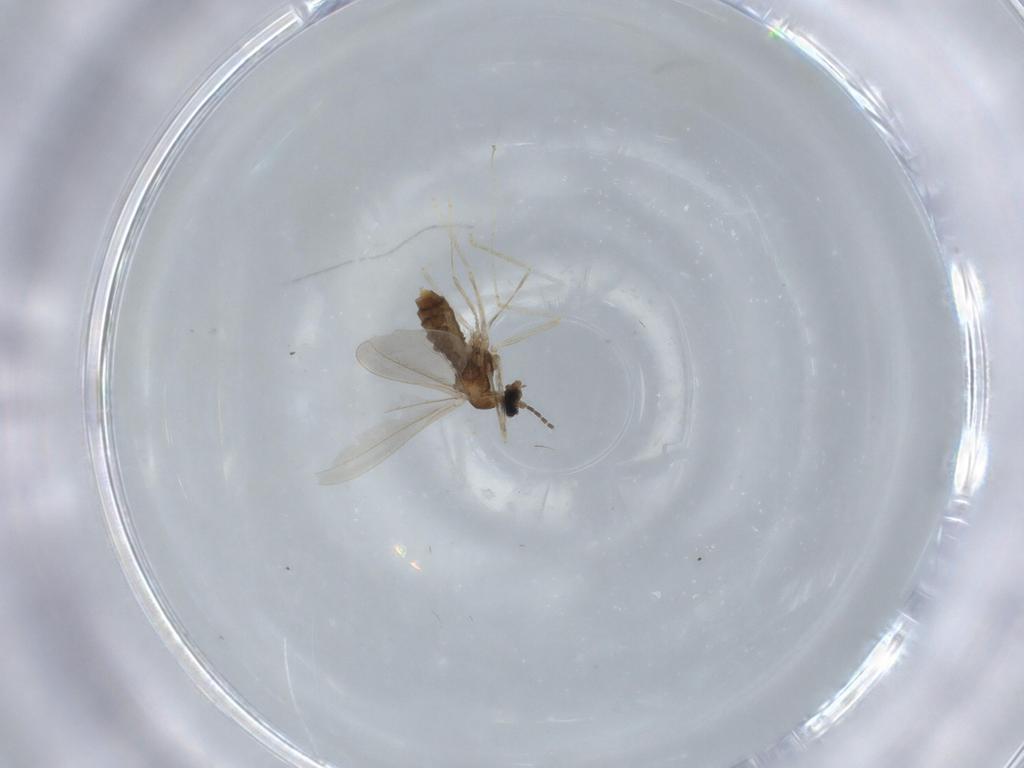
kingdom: Animalia
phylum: Arthropoda
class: Insecta
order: Diptera
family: Cecidomyiidae
